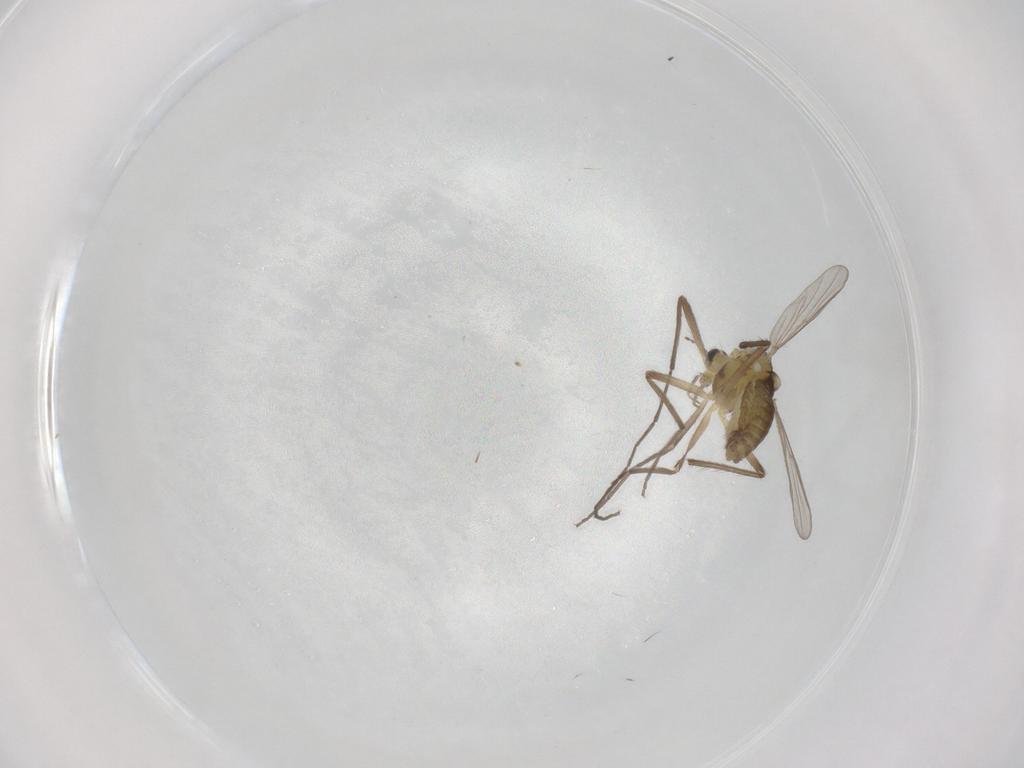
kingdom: Animalia
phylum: Arthropoda
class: Insecta
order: Diptera
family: Chironomidae
